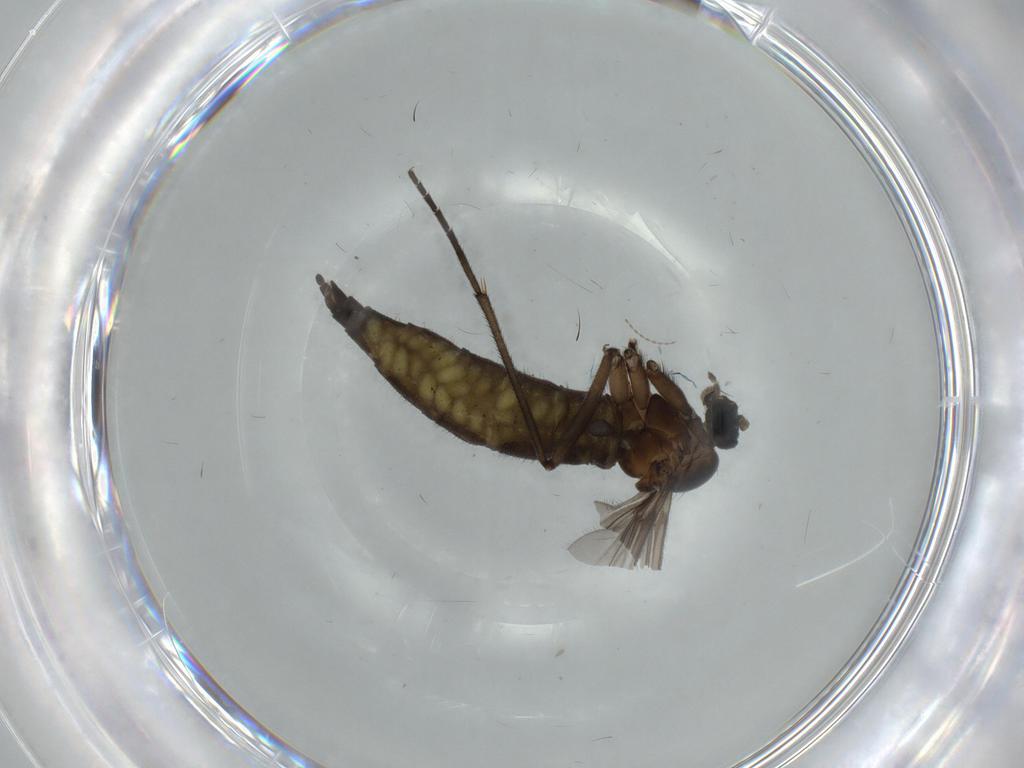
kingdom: Animalia
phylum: Arthropoda
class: Insecta
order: Diptera
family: Sciaridae
